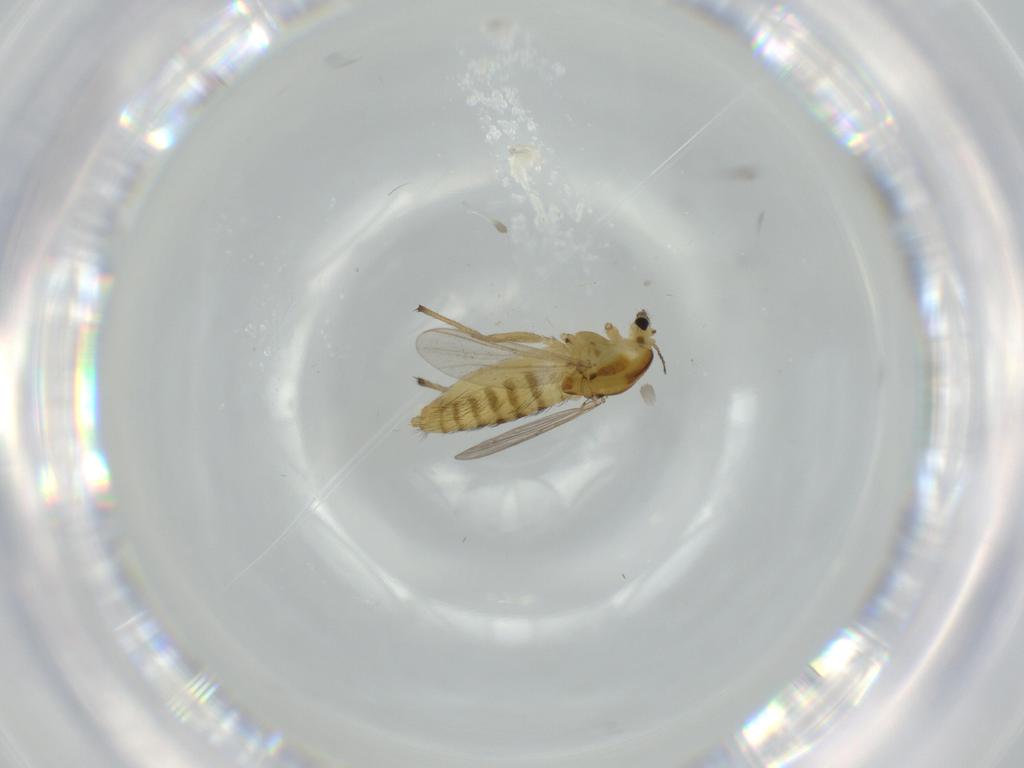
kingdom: Animalia
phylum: Arthropoda
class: Insecta
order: Diptera
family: Chironomidae
